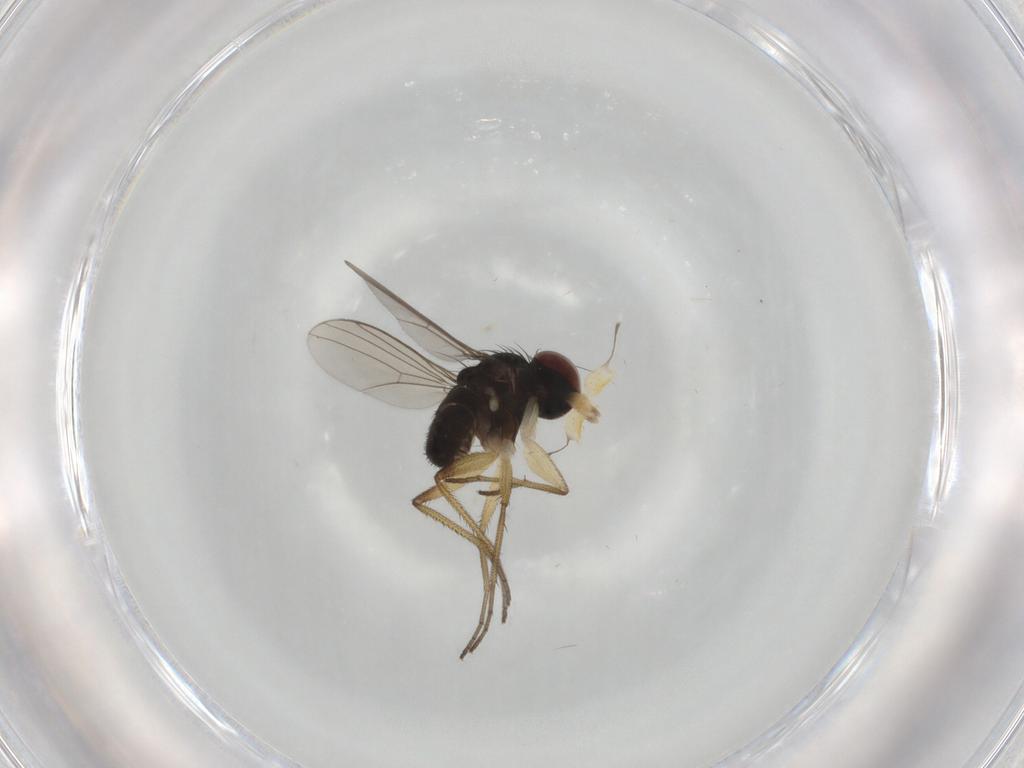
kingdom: Animalia
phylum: Arthropoda
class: Insecta
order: Diptera
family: Dolichopodidae
